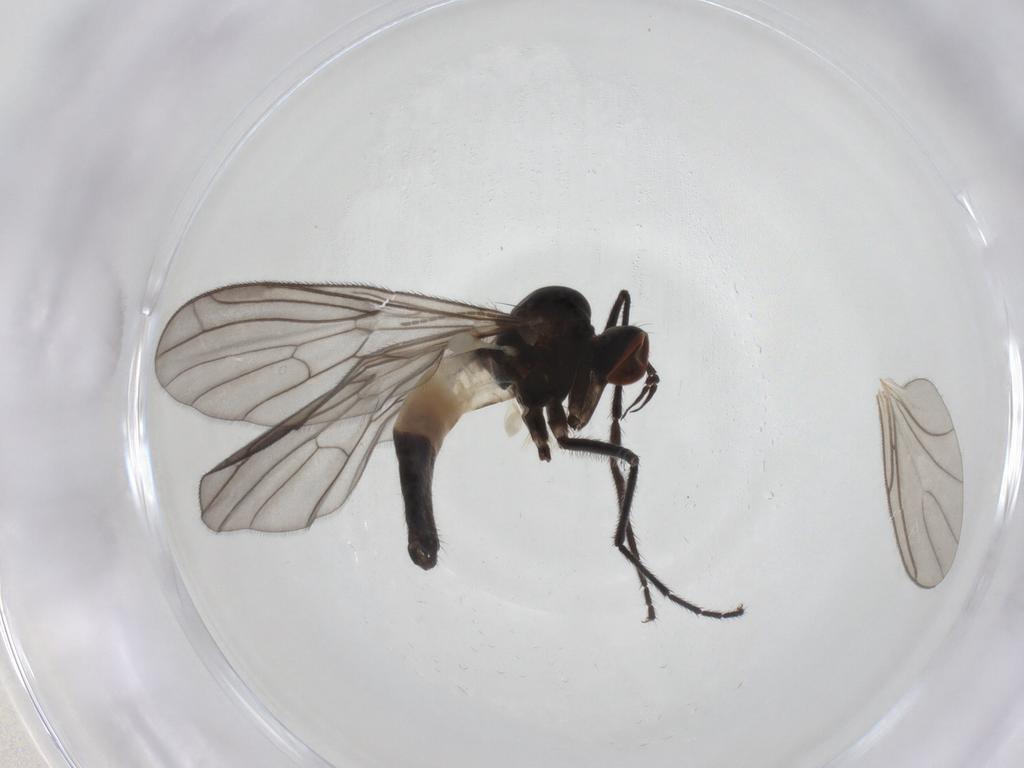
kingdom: Animalia
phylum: Arthropoda
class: Insecta
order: Diptera
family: Empididae
